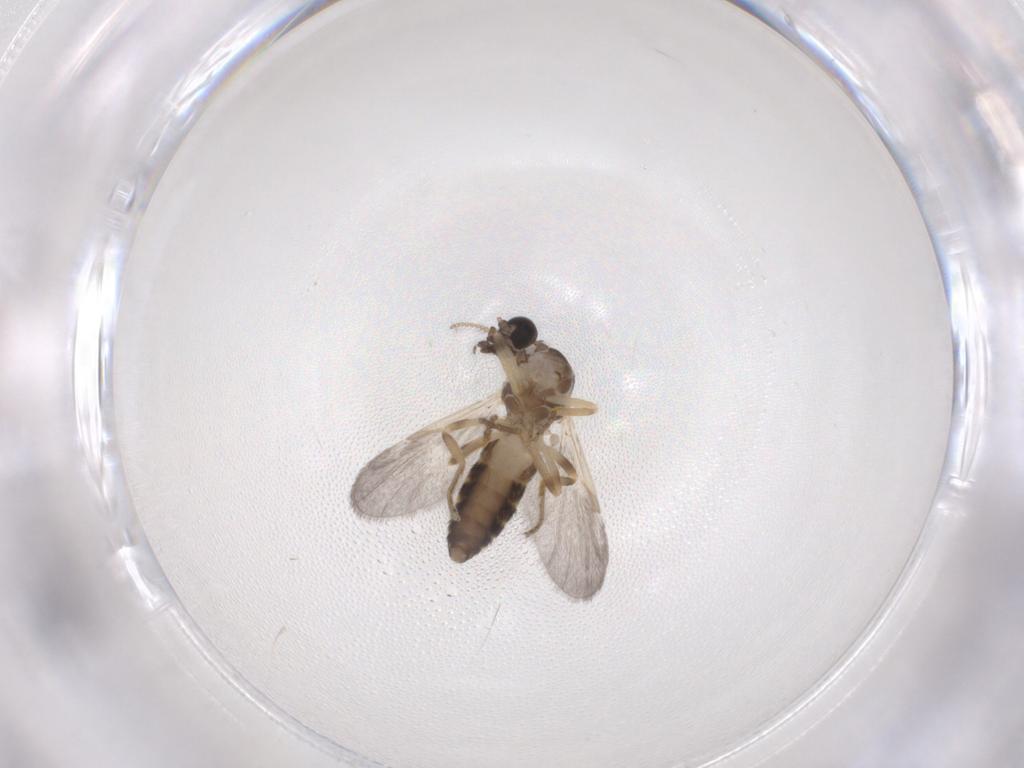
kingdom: Animalia
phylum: Arthropoda
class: Insecta
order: Diptera
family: Ceratopogonidae
